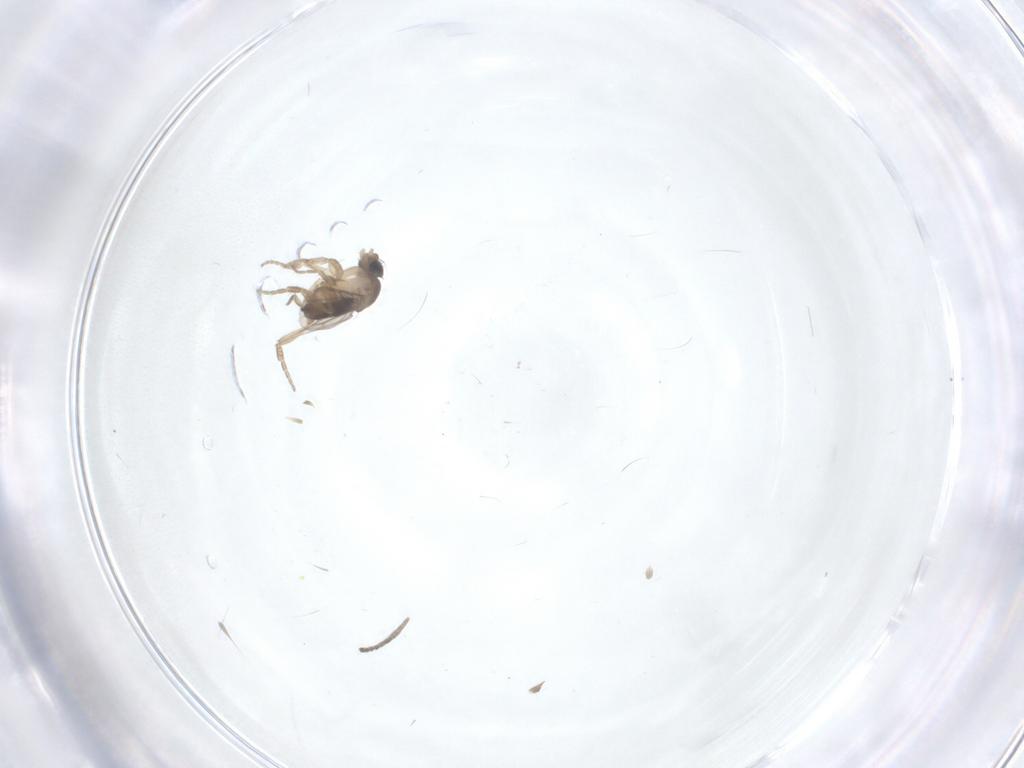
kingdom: Animalia
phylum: Arthropoda
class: Insecta
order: Diptera
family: Phoridae
